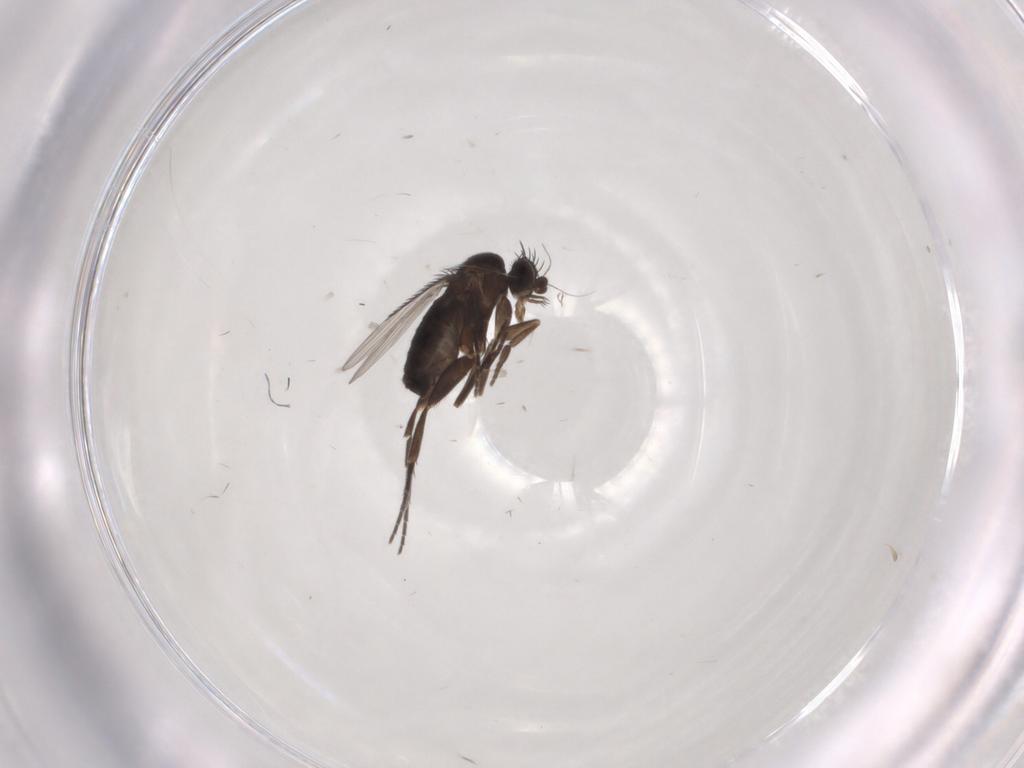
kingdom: Animalia
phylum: Arthropoda
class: Insecta
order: Diptera
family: Phoridae
